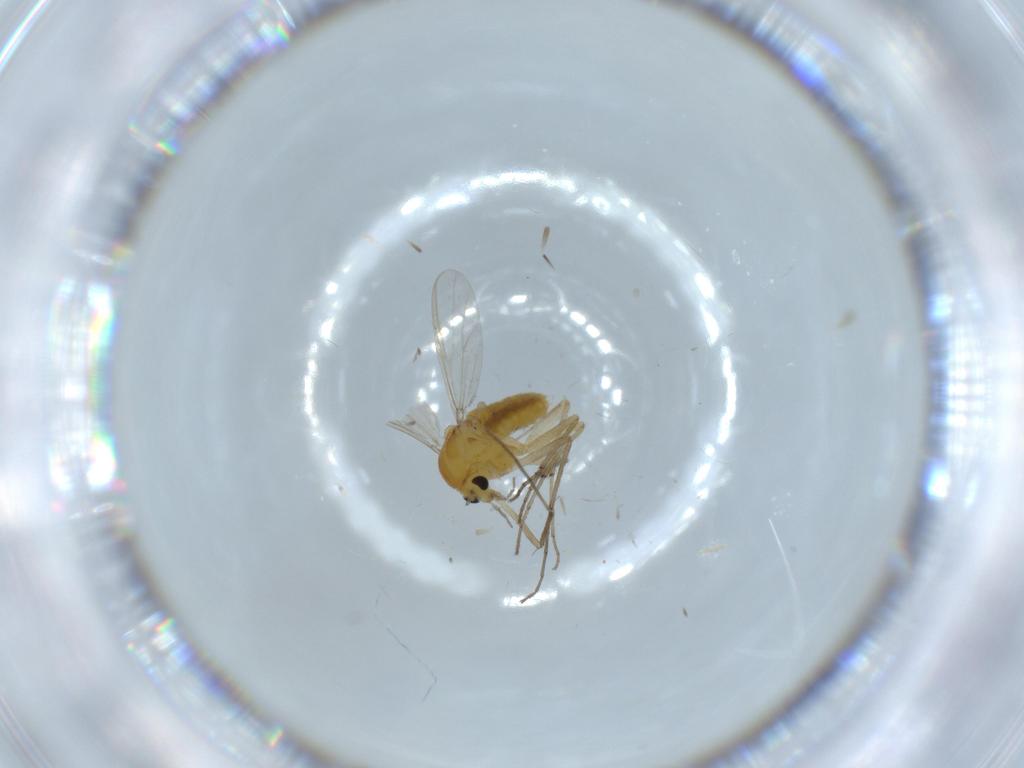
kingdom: Animalia
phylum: Arthropoda
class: Insecta
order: Diptera
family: Chironomidae
